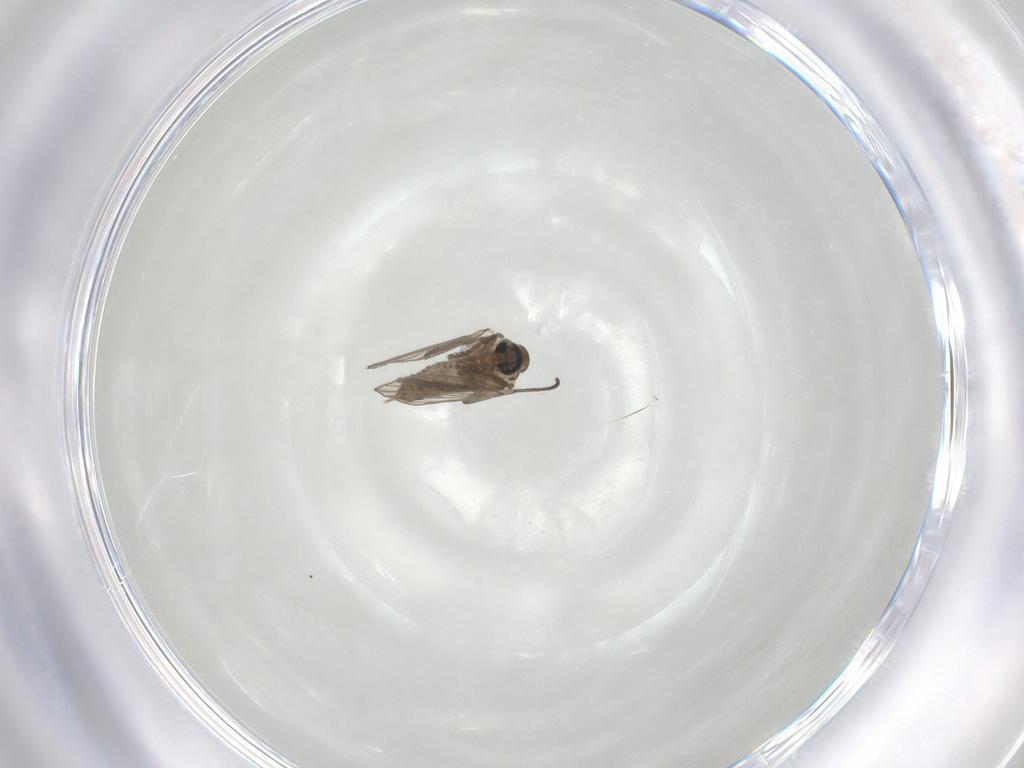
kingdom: Animalia
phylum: Arthropoda
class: Insecta
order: Diptera
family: Psychodidae
